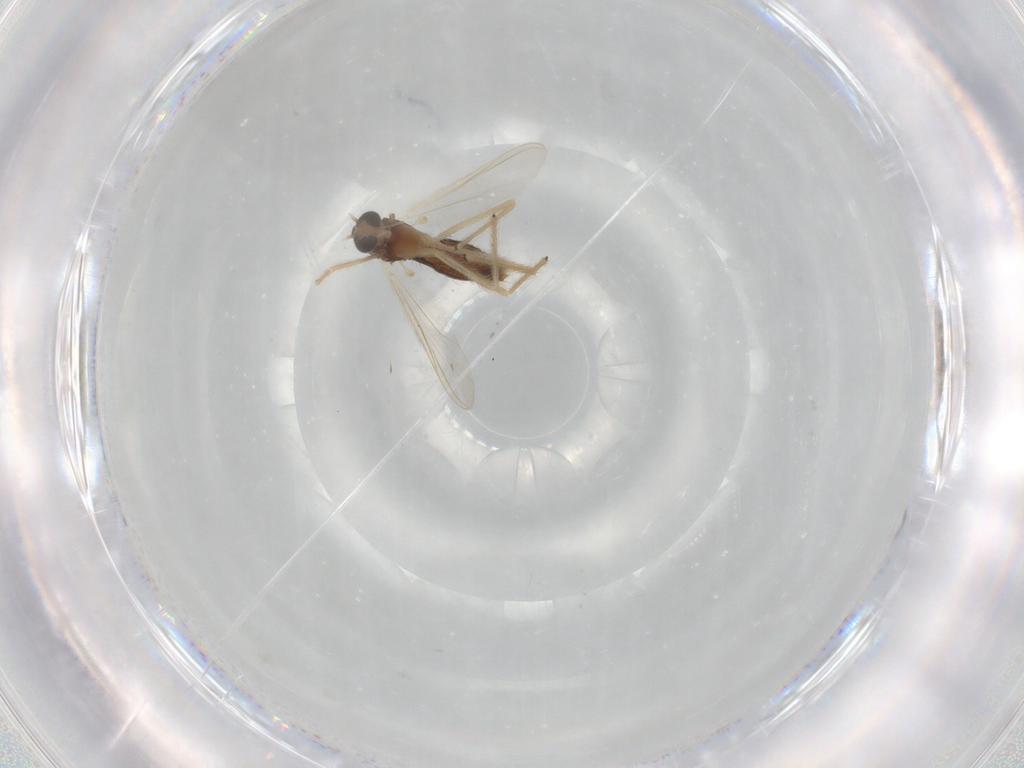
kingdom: Animalia
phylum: Arthropoda
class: Insecta
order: Diptera
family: Chironomidae
